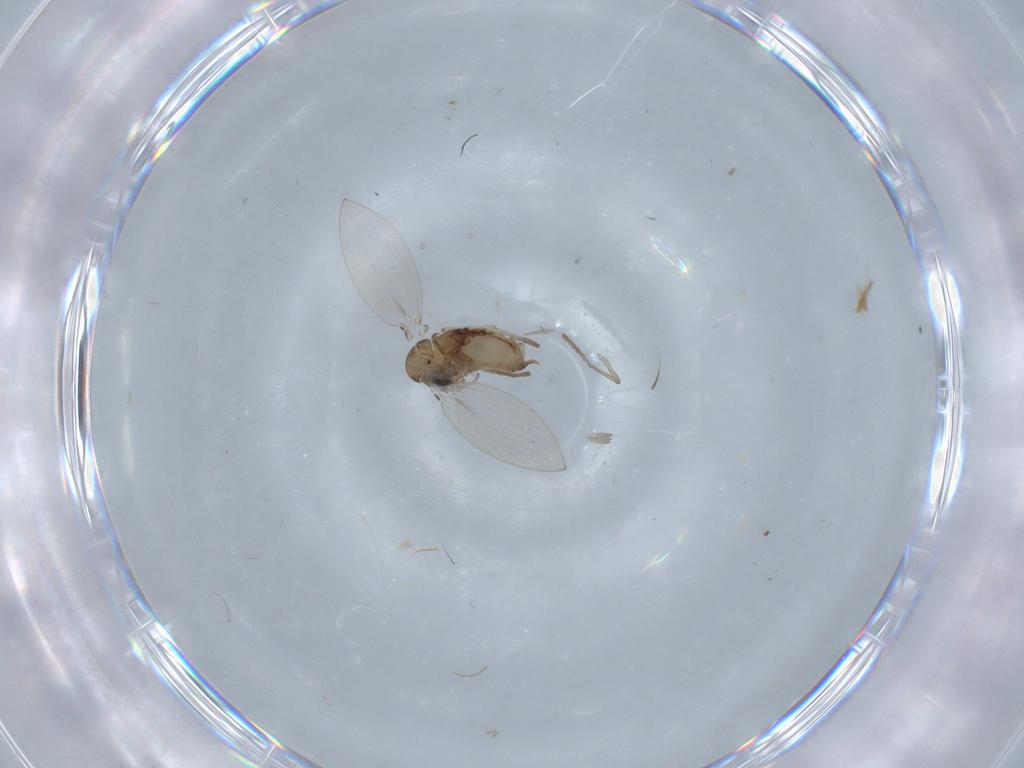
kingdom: Animalia
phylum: Arthropoda
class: Insecta
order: Diptera
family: Psychodidae
